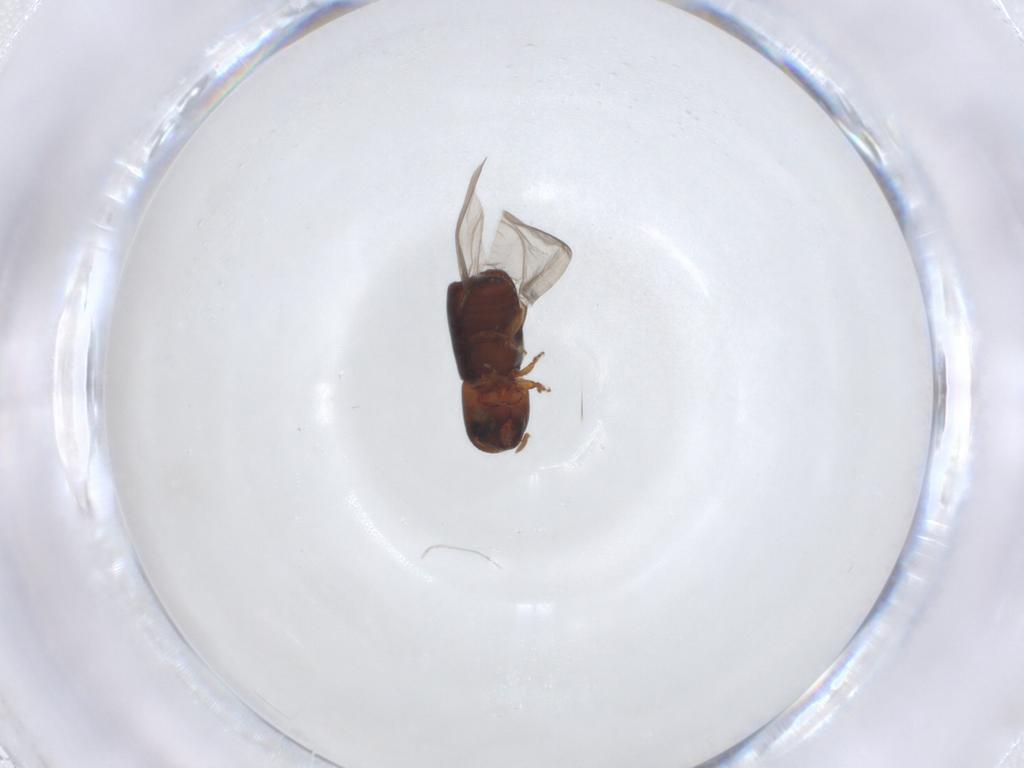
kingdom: Animalia
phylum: Arthropoda
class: Insecta
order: Coleoptera
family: Curculionidae
